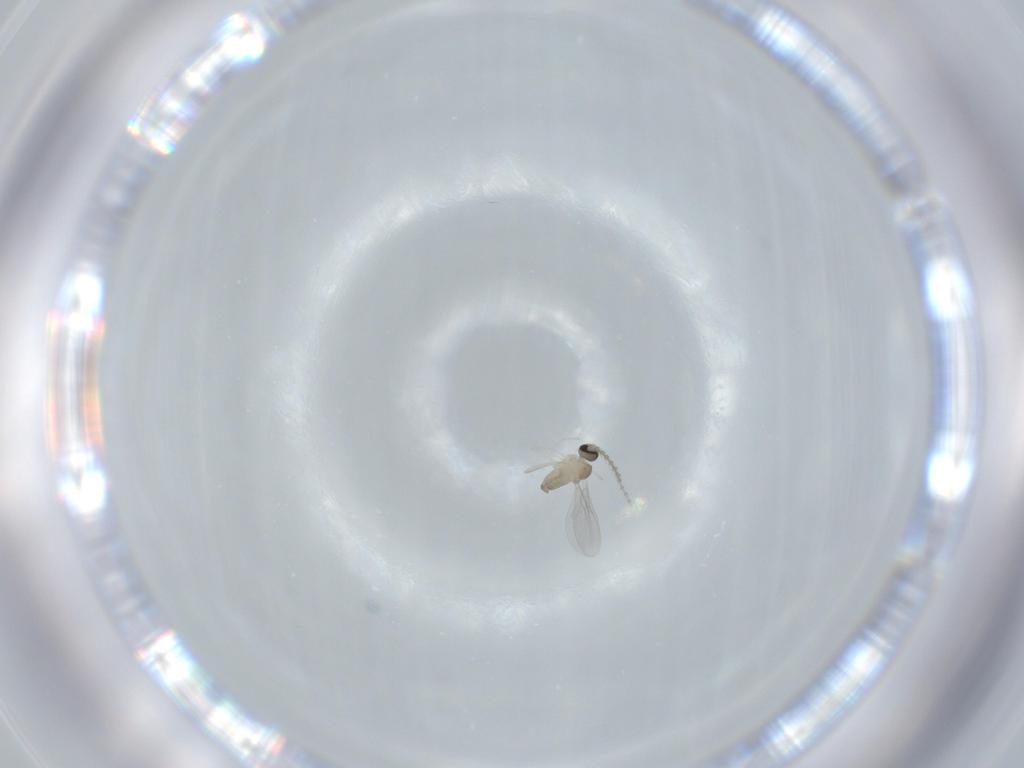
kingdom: Animalia
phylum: Arthropoda
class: Insecta
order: Diptera
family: Cecidomyiidae
